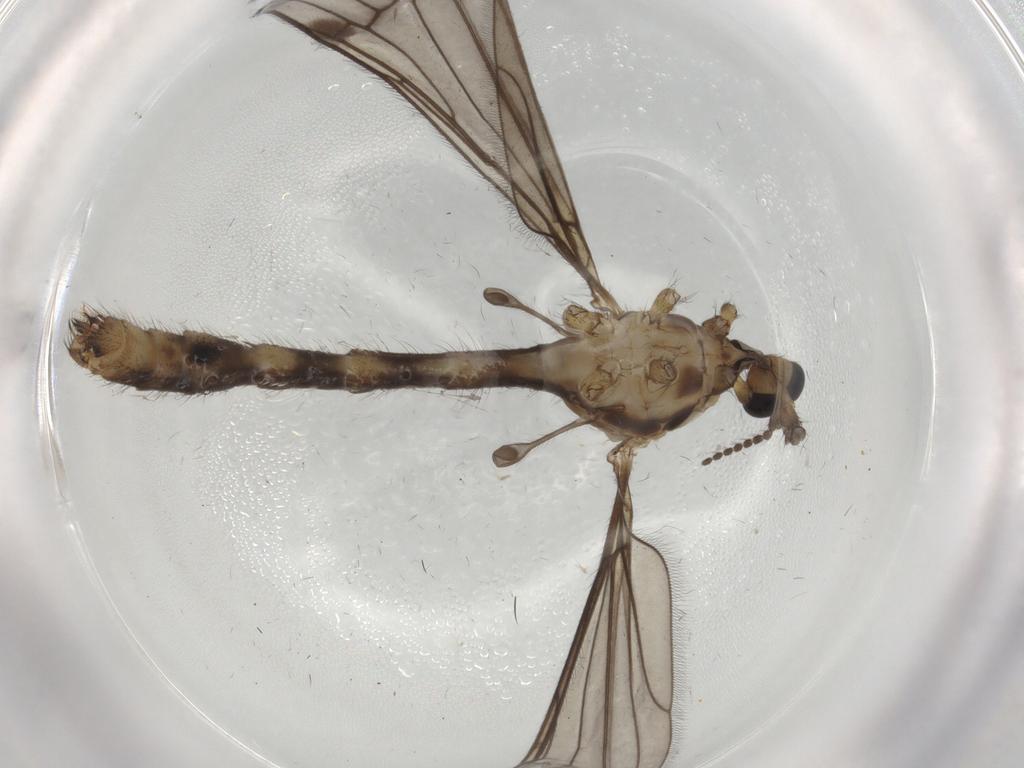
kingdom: Animalia
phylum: Arthropoda
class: Insecta
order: Diptera
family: Limoniidae
